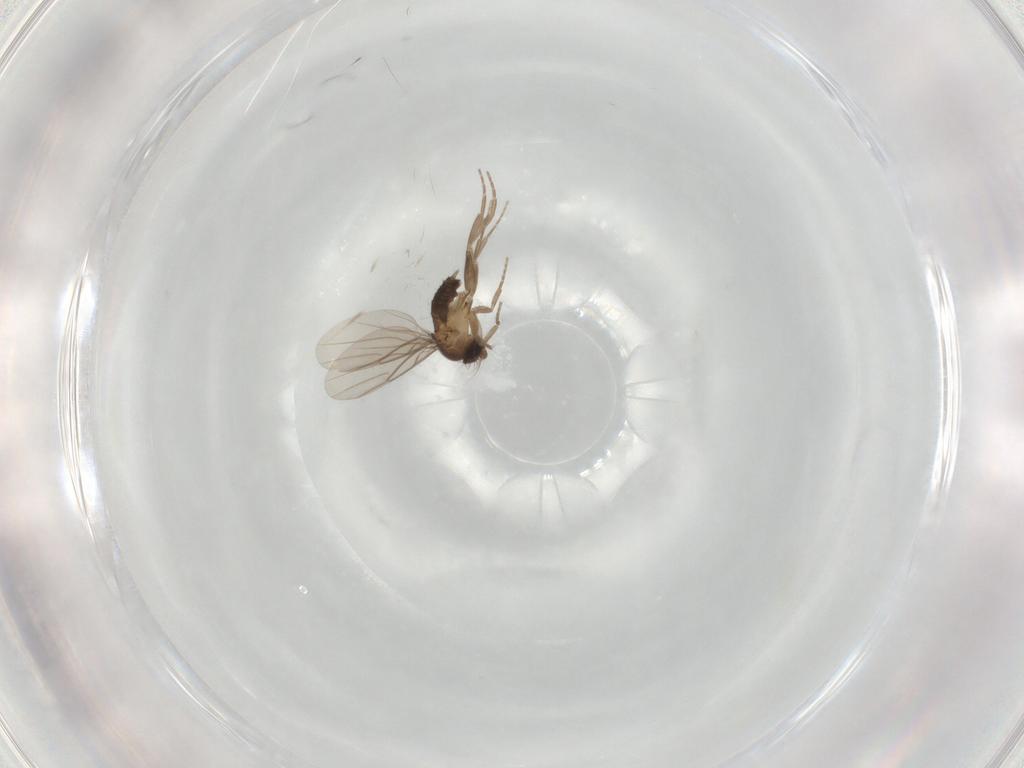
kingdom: Animalia
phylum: Arthropoda
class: Insecta
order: Diptera
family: Phoridae
